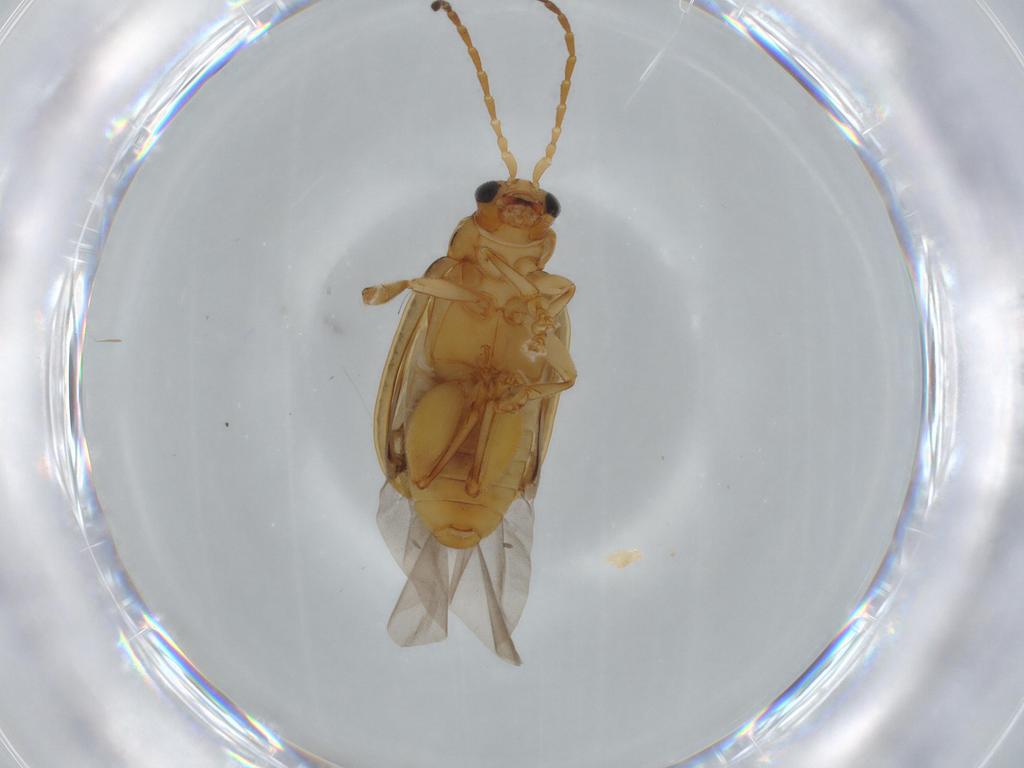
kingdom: Animalia
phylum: Arthropoda
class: Insecta
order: Coleoptera
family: Chrysomelidae
